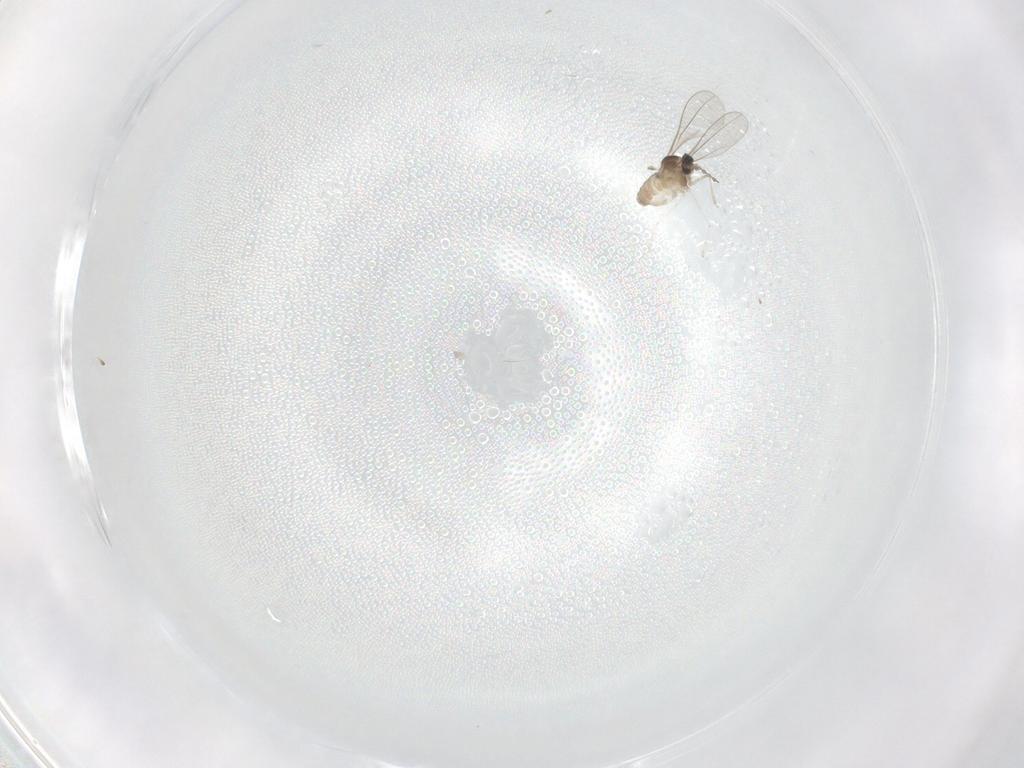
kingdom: Animalia
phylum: Arthropoda
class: Insecta
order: Diptera
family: Cecidomyiidae
